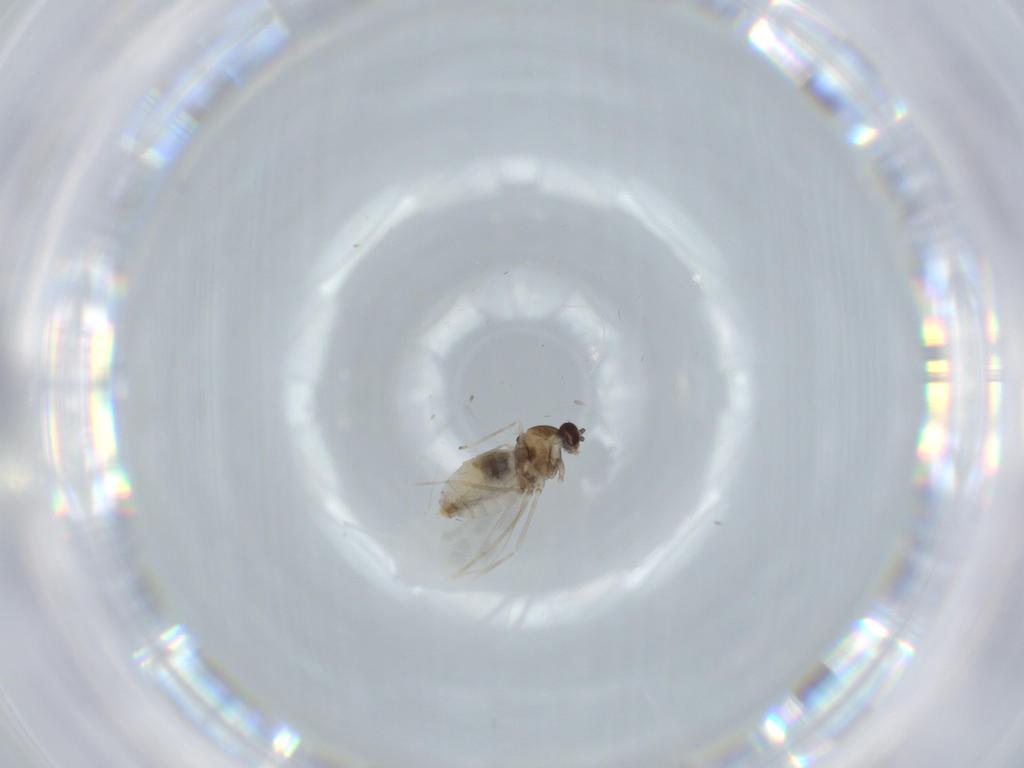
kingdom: Animalia
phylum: Arthropoda
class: Insecta
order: Diptera
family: Cecidomyiidae
